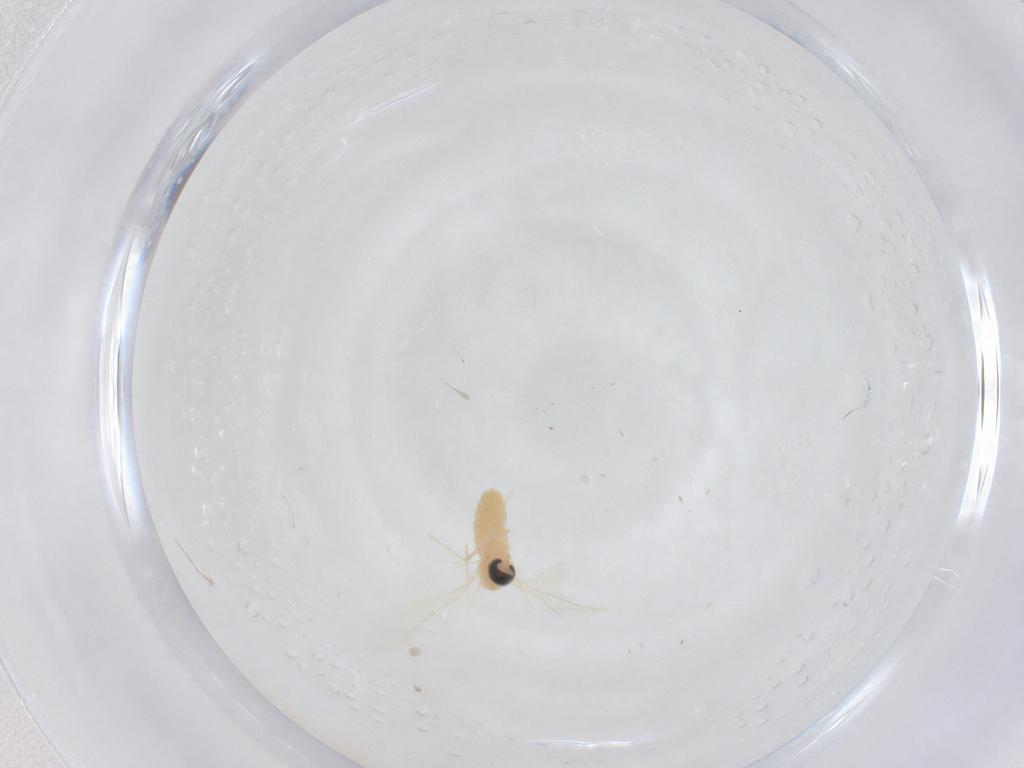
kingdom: Animalia
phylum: Arthropoda
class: Insecta
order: Diptera
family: Cecidomyiidae
